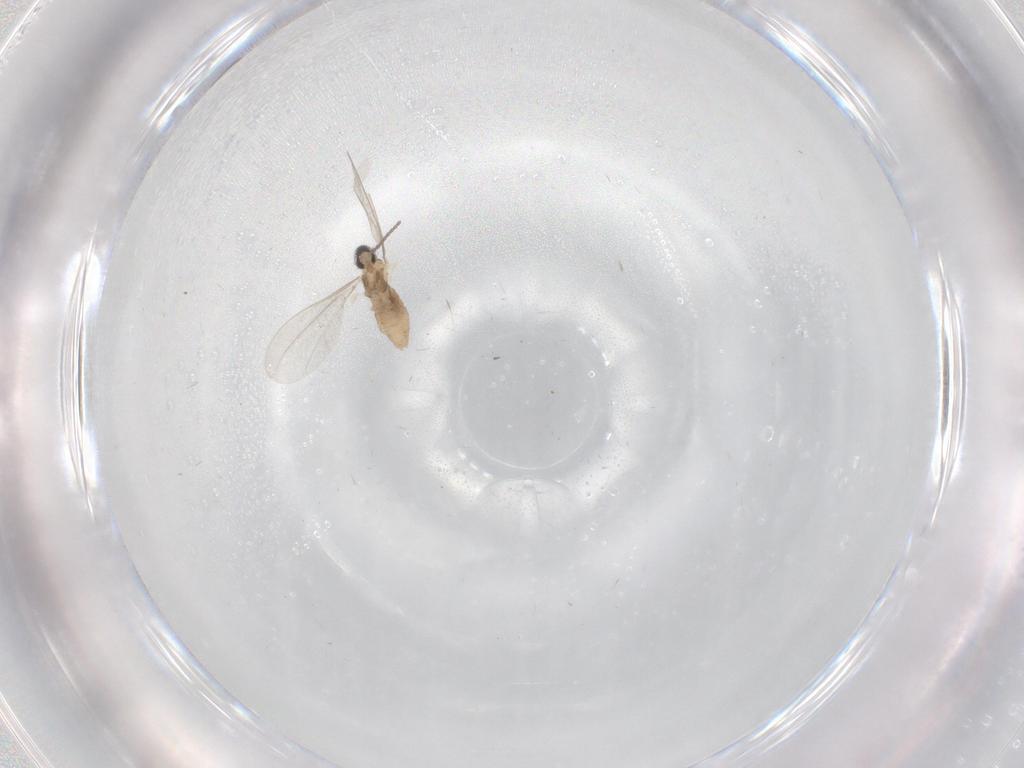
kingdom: Animalia
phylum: Arthropoda
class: Insecta
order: Diptera
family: Cecidomyiidae
